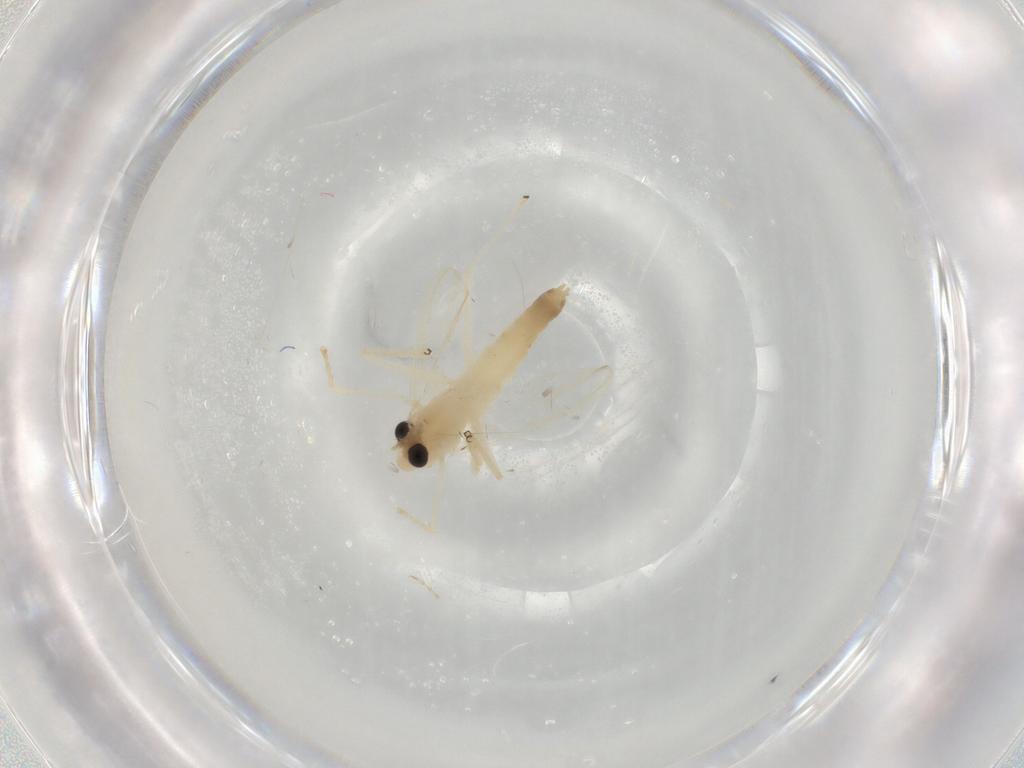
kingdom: Animalia
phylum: Arthropoda
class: Insecta
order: Diptera
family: Chironomidae
